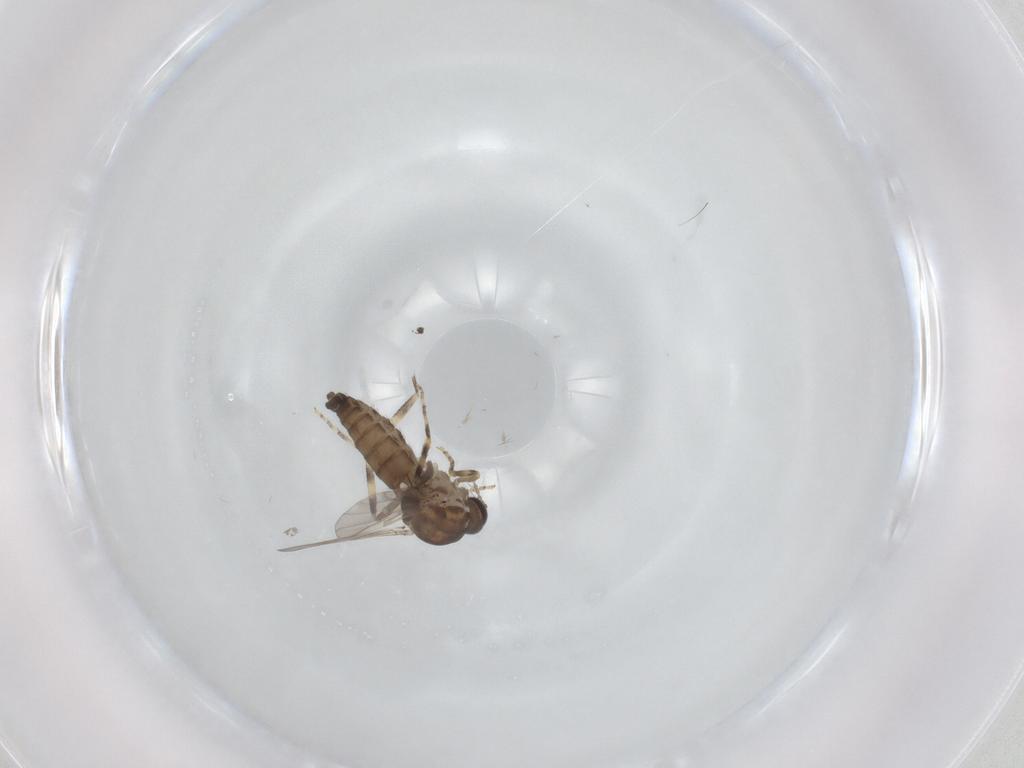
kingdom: Animalia
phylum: Arthropoda
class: Insecta
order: Diptera
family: Ceratopogonidae
